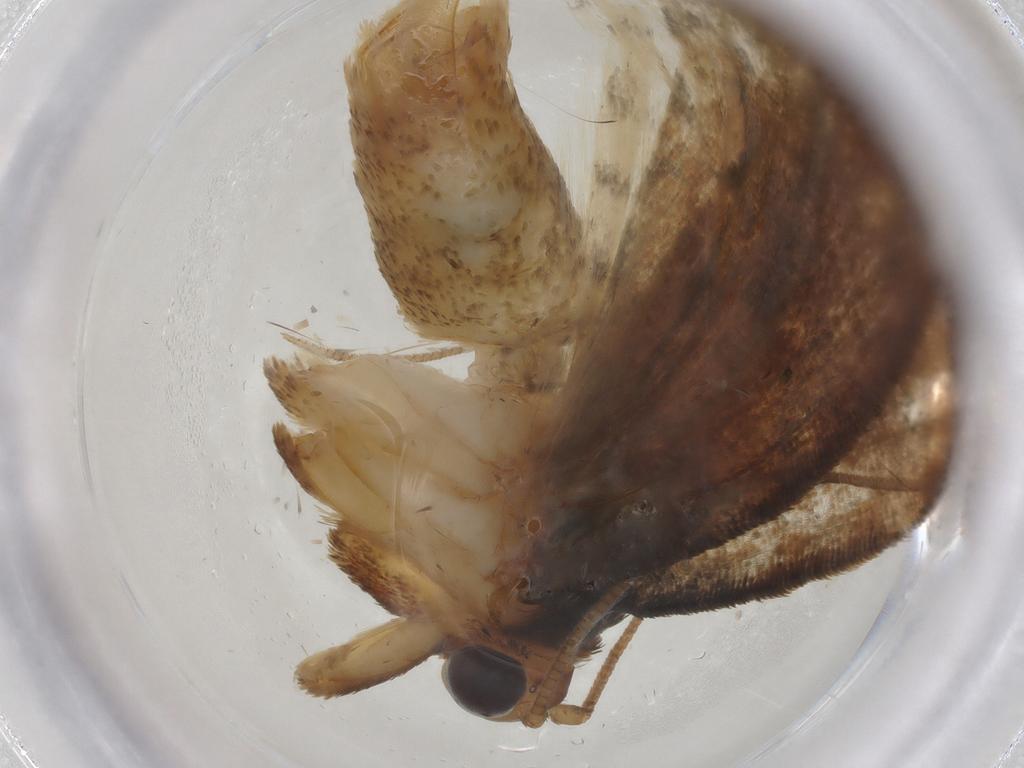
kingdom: Animalia
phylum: Arthropoda
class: Insecta
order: Lepidoptera
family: Tortricidae
